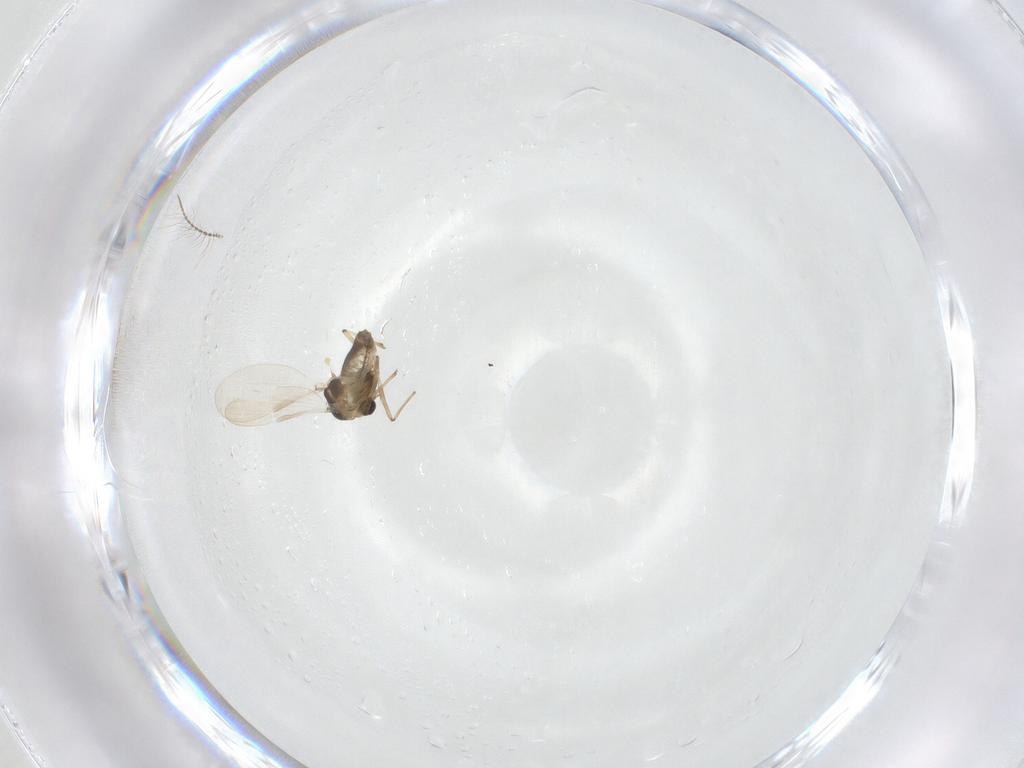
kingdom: Animalia
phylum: Arthropoda
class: Insecta
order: Diptera
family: Chironomidae
